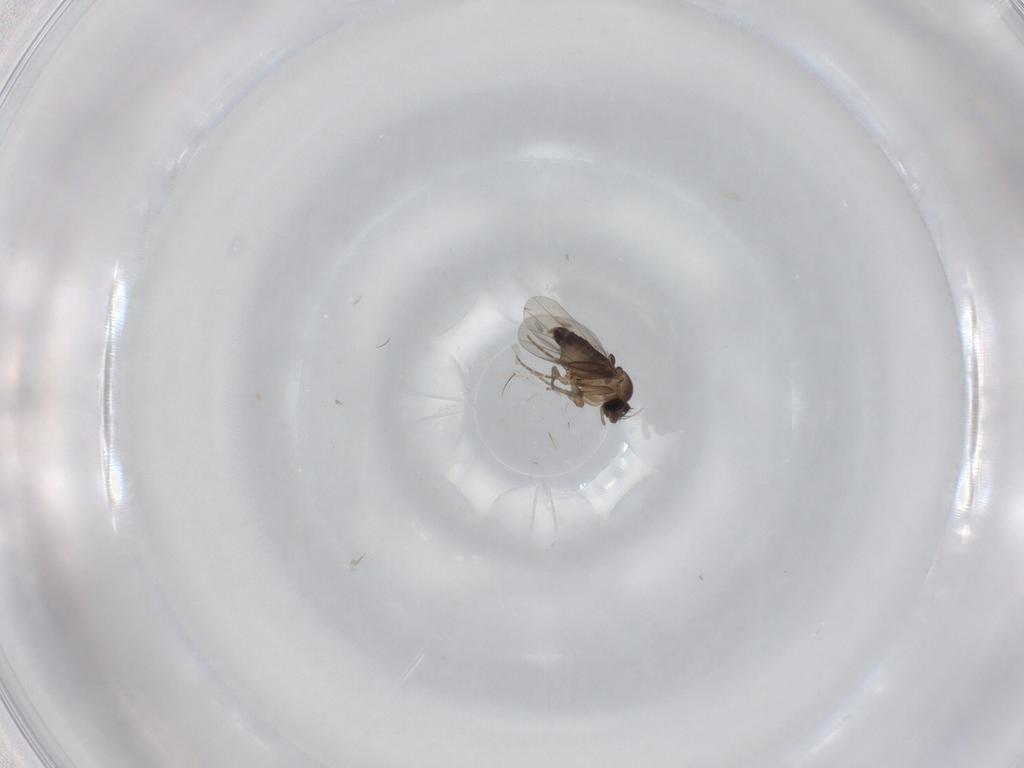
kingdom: Animalia
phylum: Arthropoda
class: Insecta
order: Diptera
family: Phoridae
